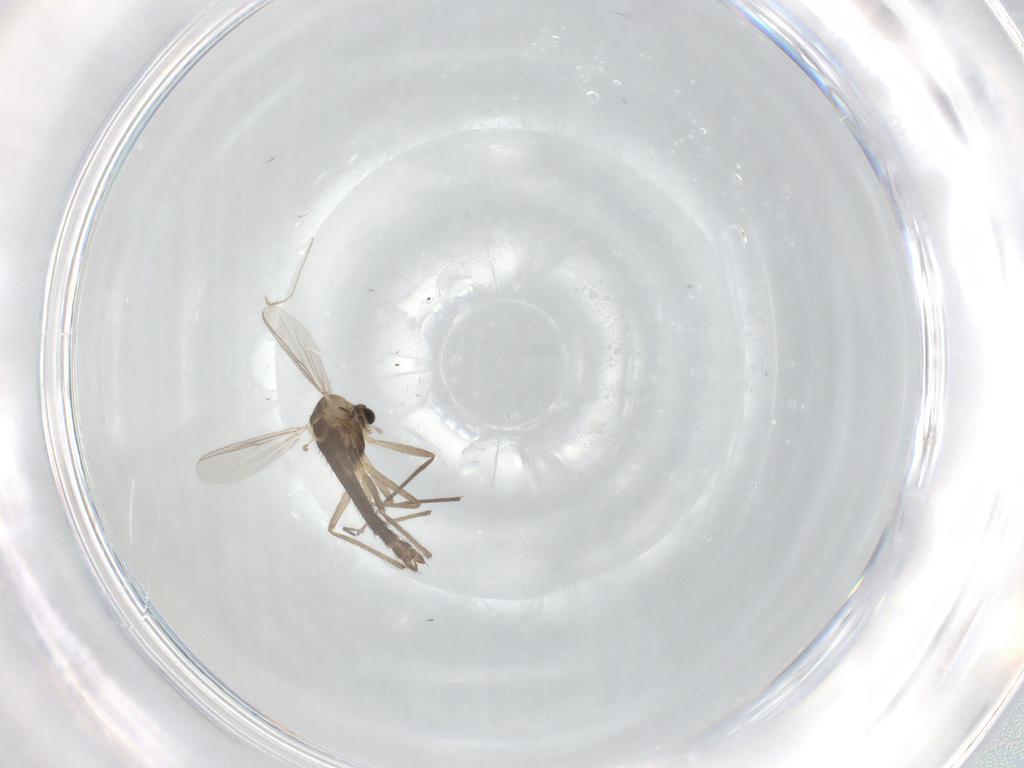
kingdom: Animalia
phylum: Arthropoda
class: Insecta
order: Diptera
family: Chironomidae
